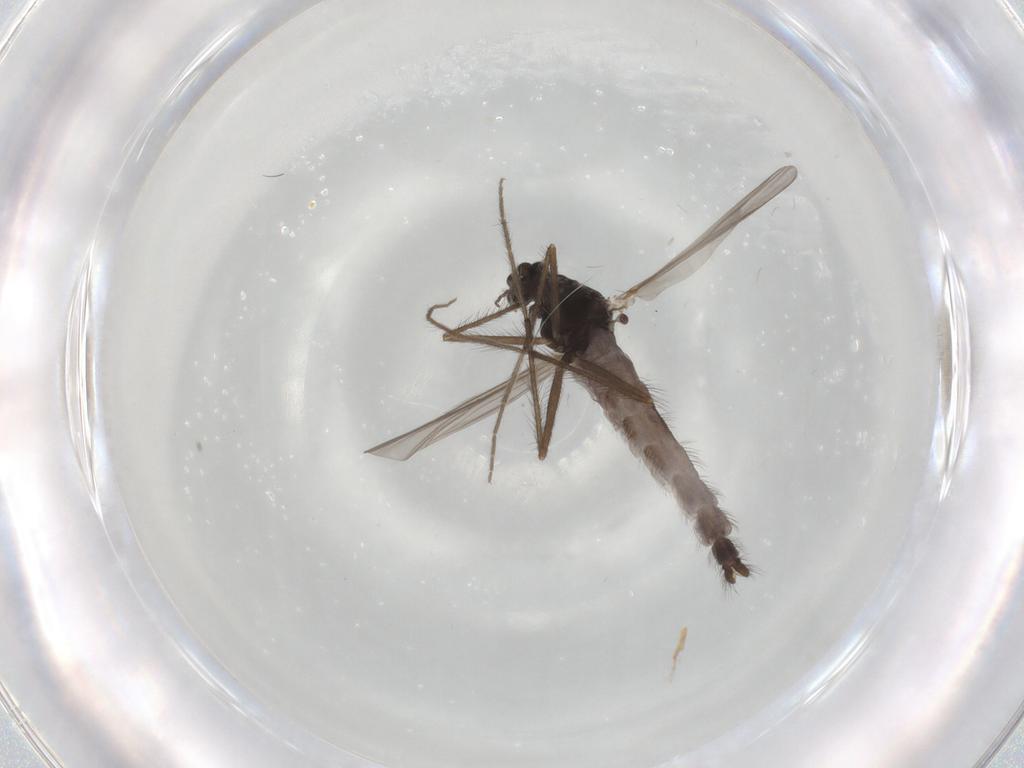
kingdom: Animalia
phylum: Arthropoda
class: Insecta
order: Diptera
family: Chironomidae
